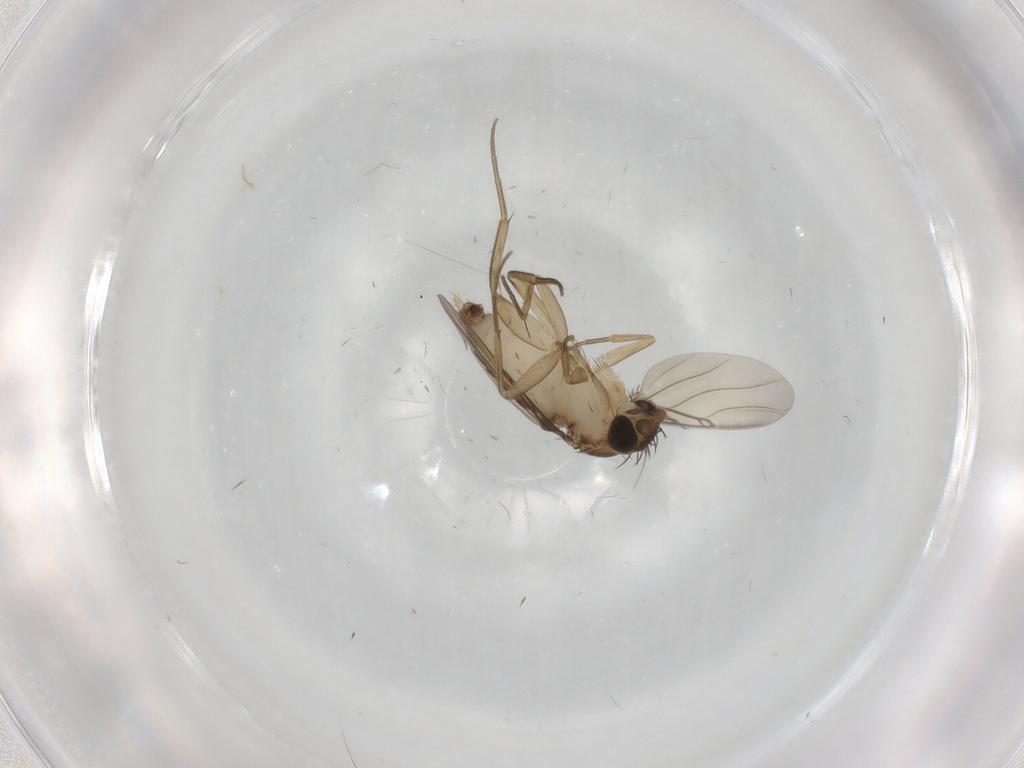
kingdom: Animalia
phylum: Arthropoda
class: Insecta
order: Diptera
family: Phoridae
